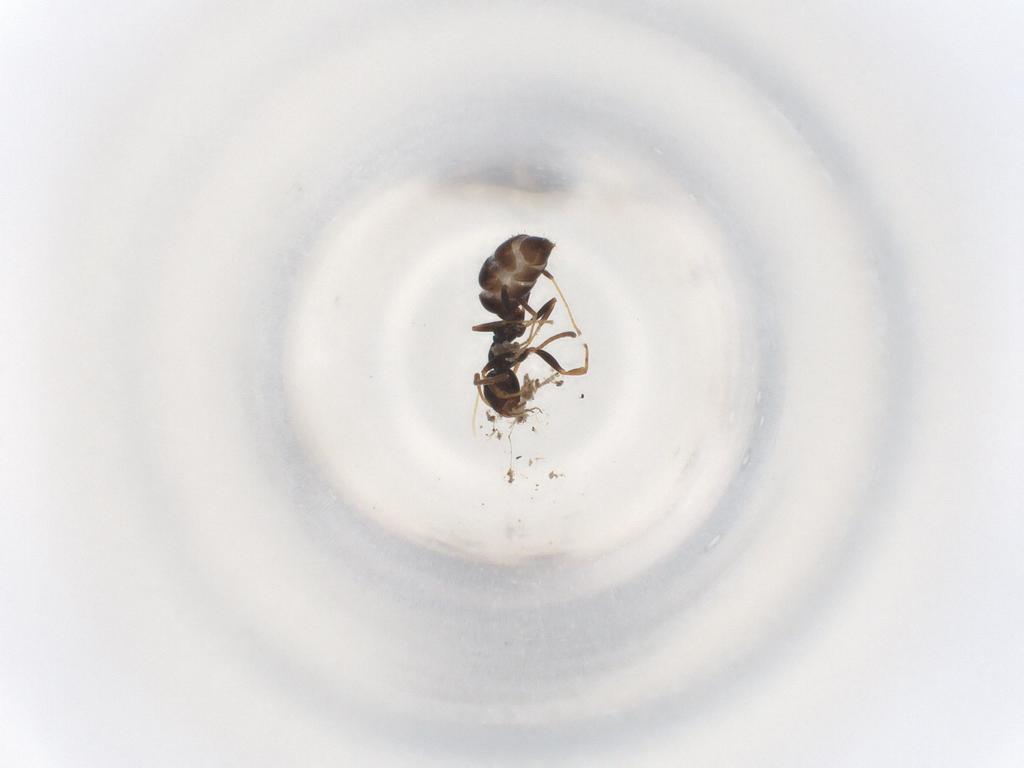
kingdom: Animalia
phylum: Arthropoda
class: Insecta
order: Hymenoptera
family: Formicidae
